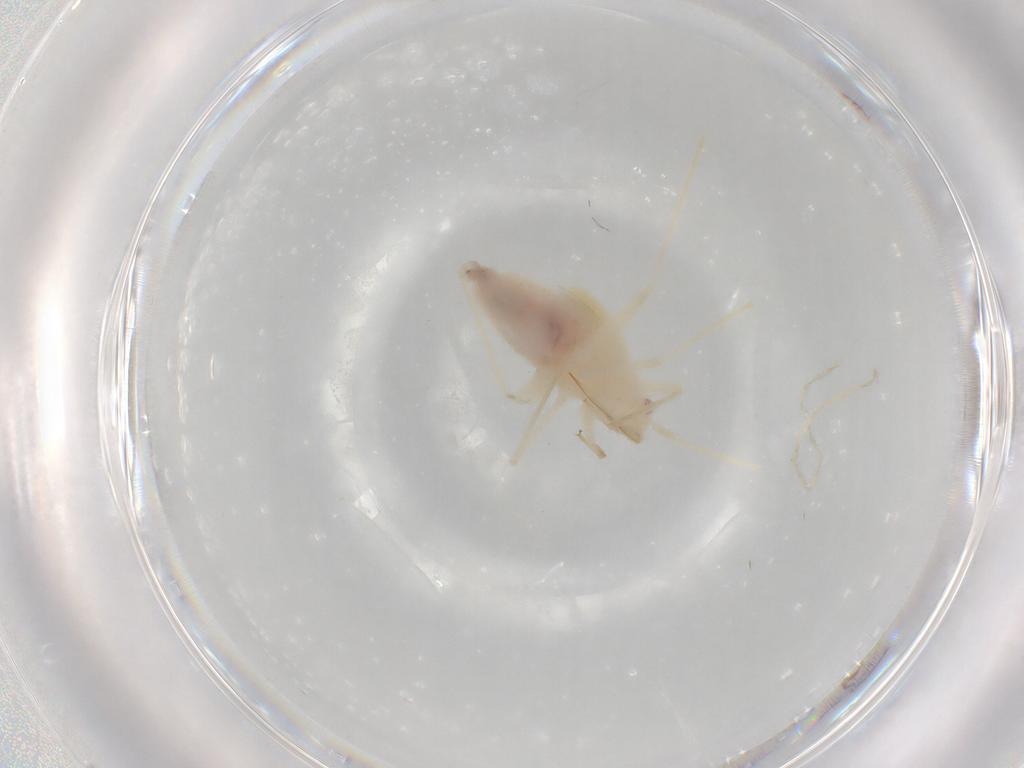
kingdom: Animalia
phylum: Arthropoda
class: Insecta
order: Hemiptera
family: Miridae
